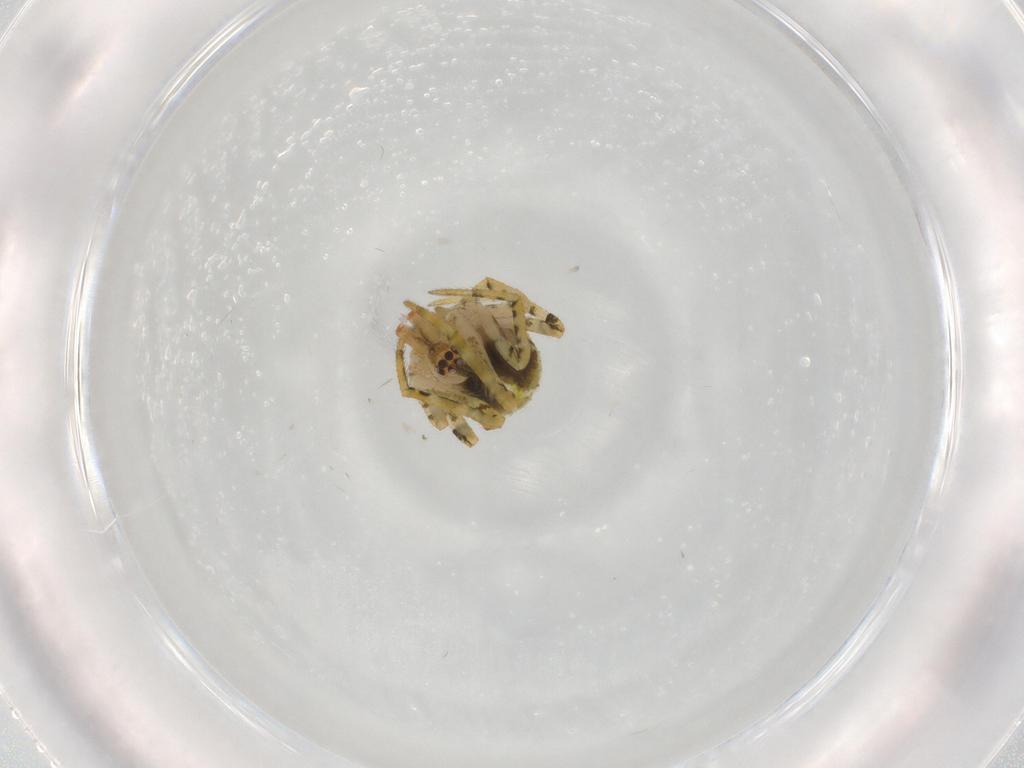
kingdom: Animalia
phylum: Arthropoda
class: Arachnida
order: Araneae
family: Theridiidae
